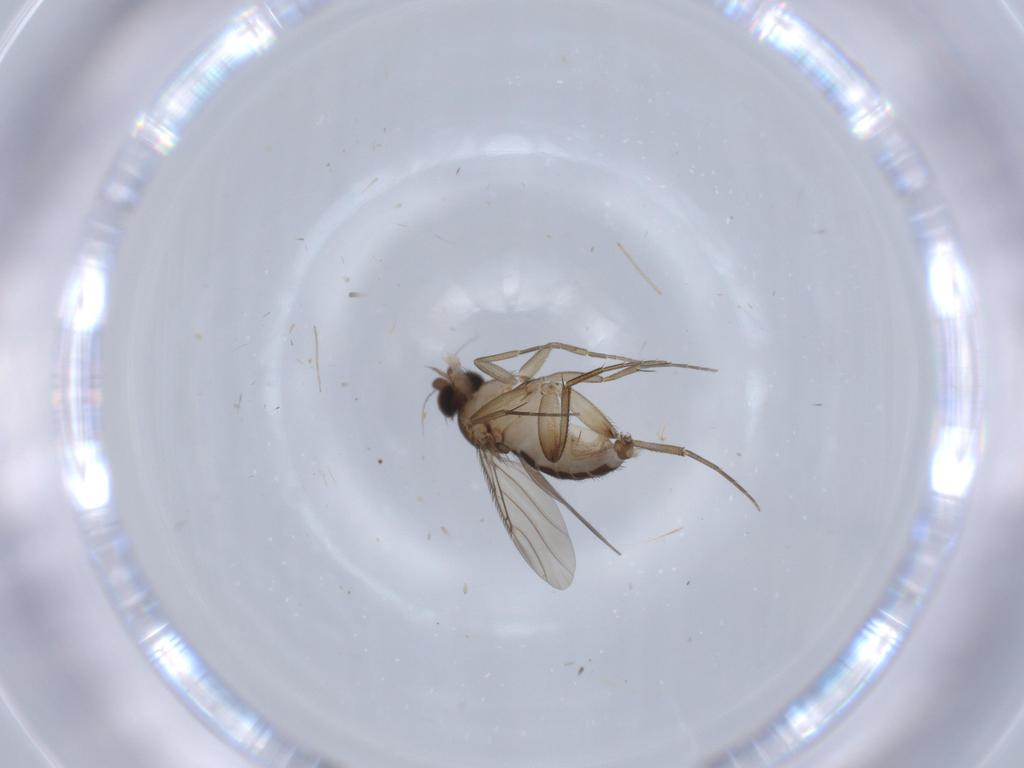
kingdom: Animalia
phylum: Arthropoda
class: Insecta
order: Diptera
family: Phoridae
